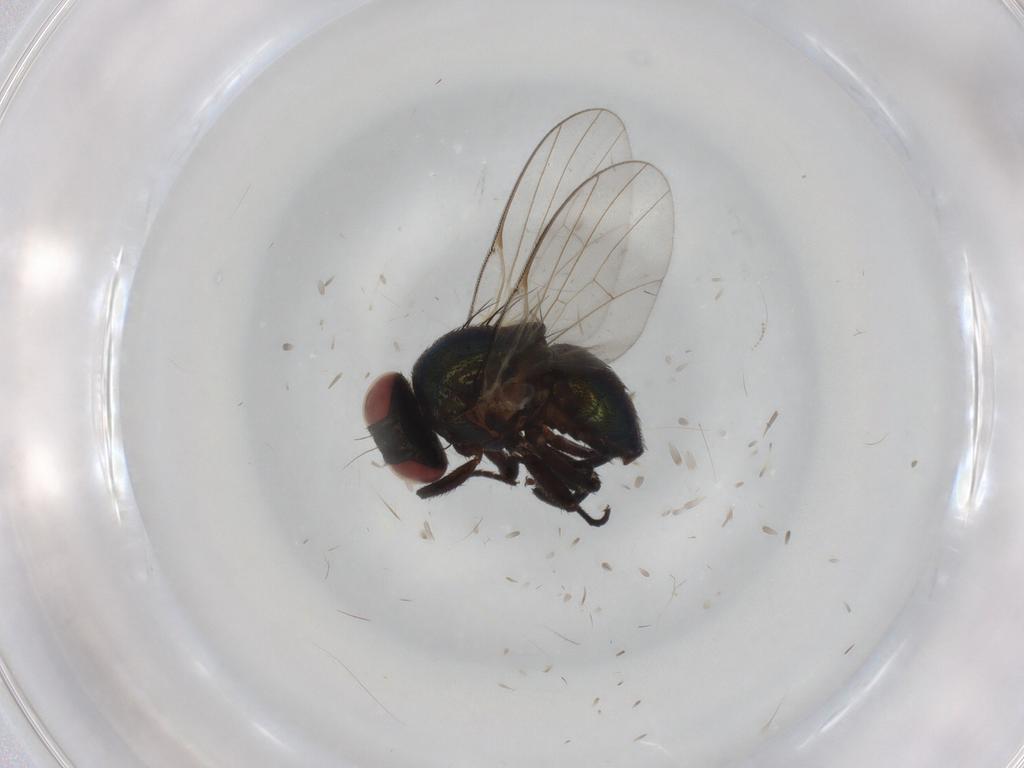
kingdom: Animalia
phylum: Arthropoda
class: Insecta
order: Diptera
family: Agromyzidae
